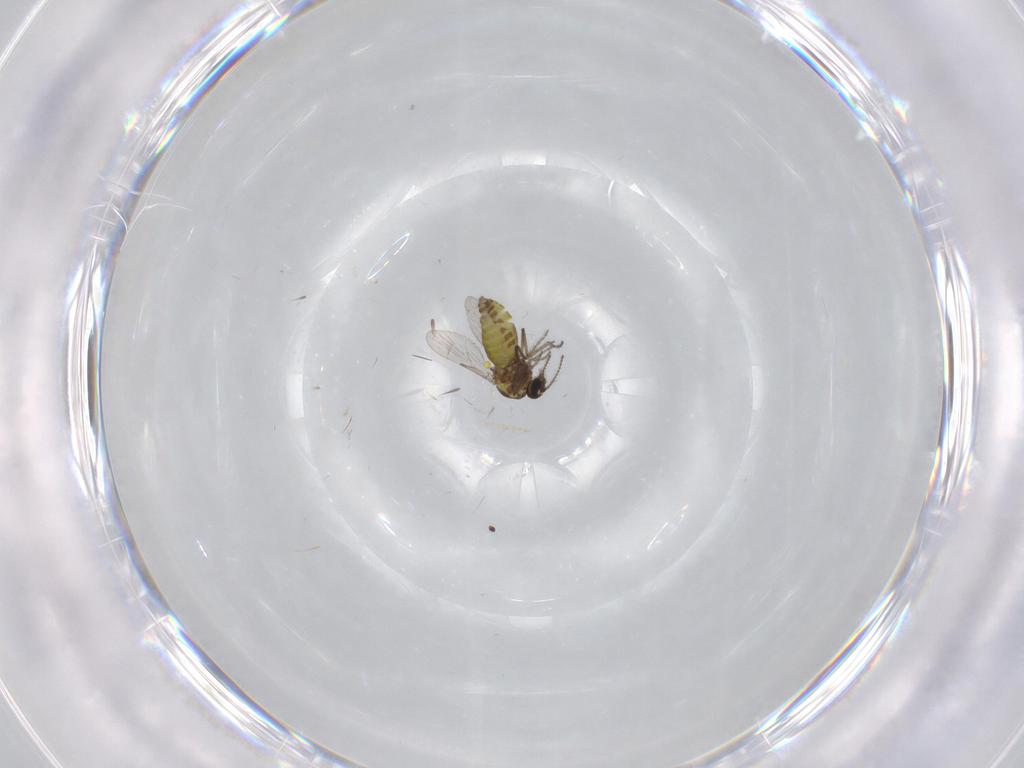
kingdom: Animalia
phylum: Arthropoda
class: Insecta
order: Diptera
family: Ceratopogonidae
